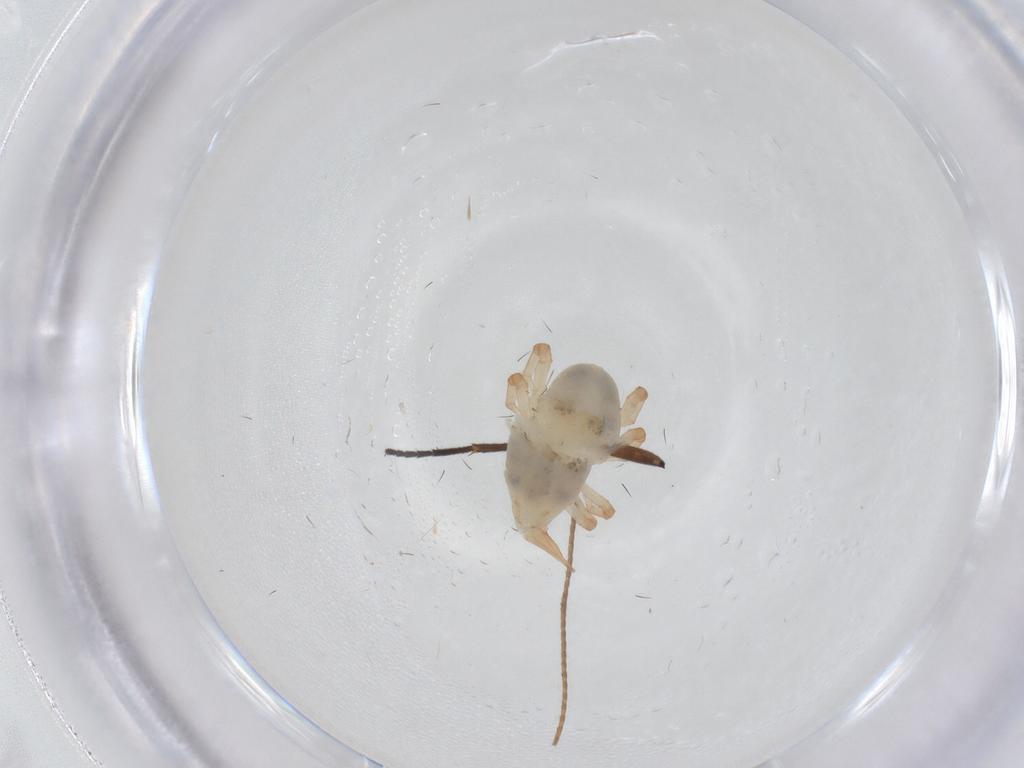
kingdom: Animalia
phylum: Arthropoda
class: Arachnida
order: Trombidiformes
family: Bdellidae
